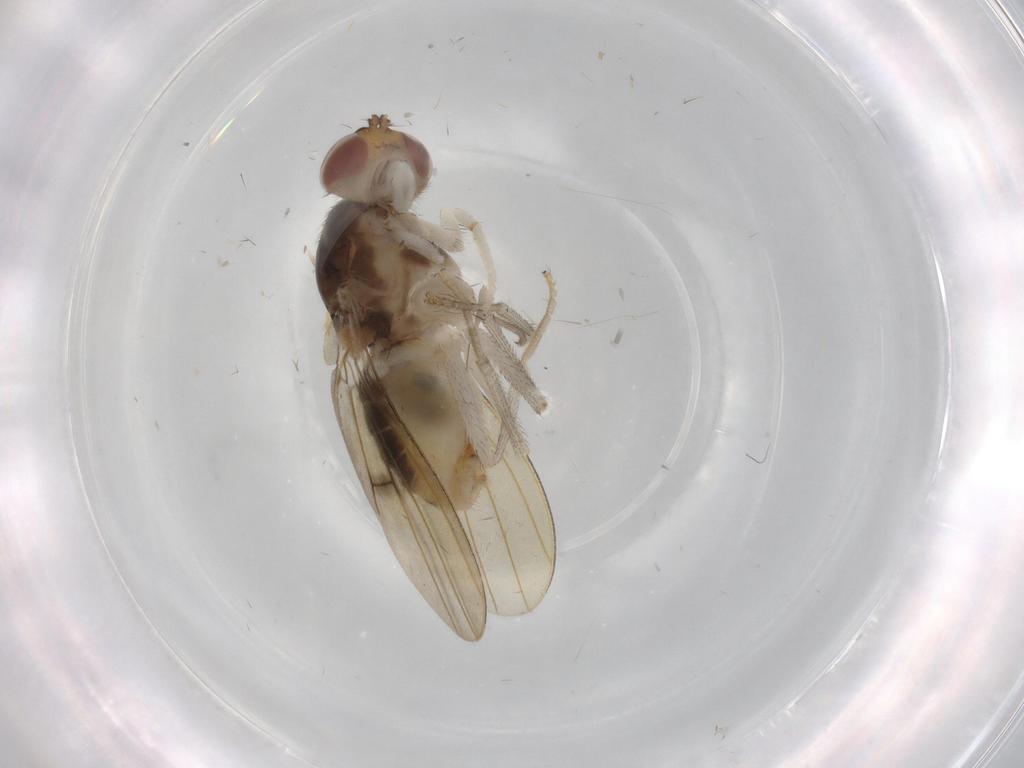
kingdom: Animalia
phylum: Arthropoda
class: Insecta
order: Diptera
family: Lauxaniidae
